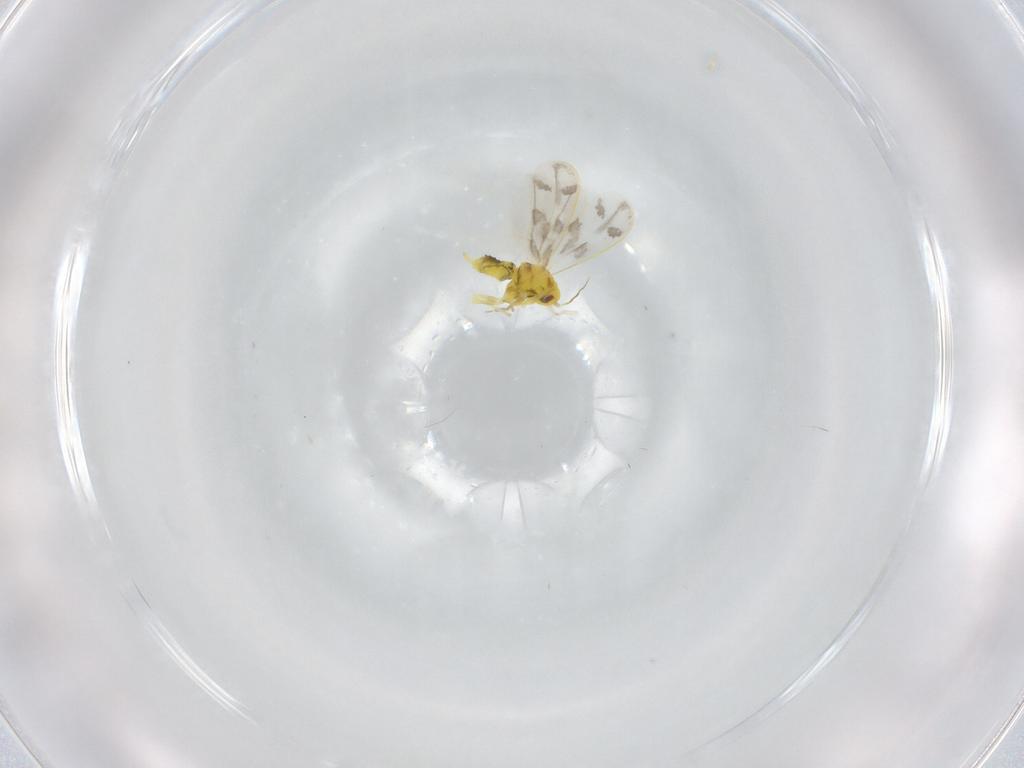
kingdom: Animalia
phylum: Arthropoda
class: Insecta
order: Hemiptera
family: Aleyrodidae
